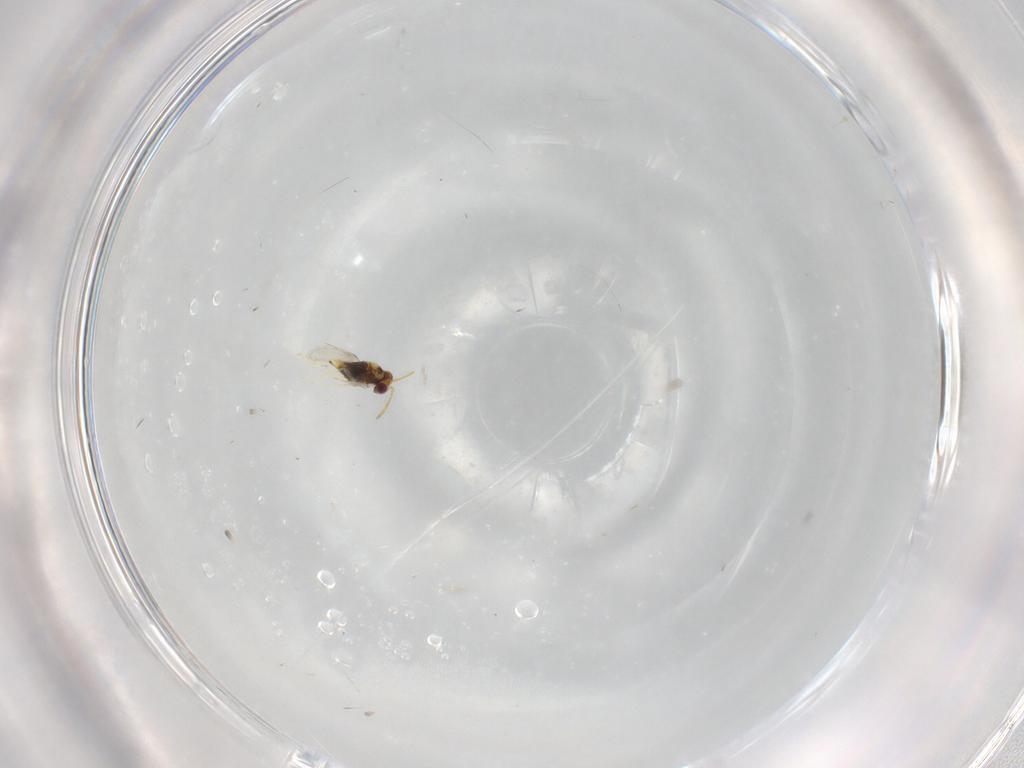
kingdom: Animalia
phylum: Arthropoda
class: Insecta
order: Hymenoptera
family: Aphelinidae
